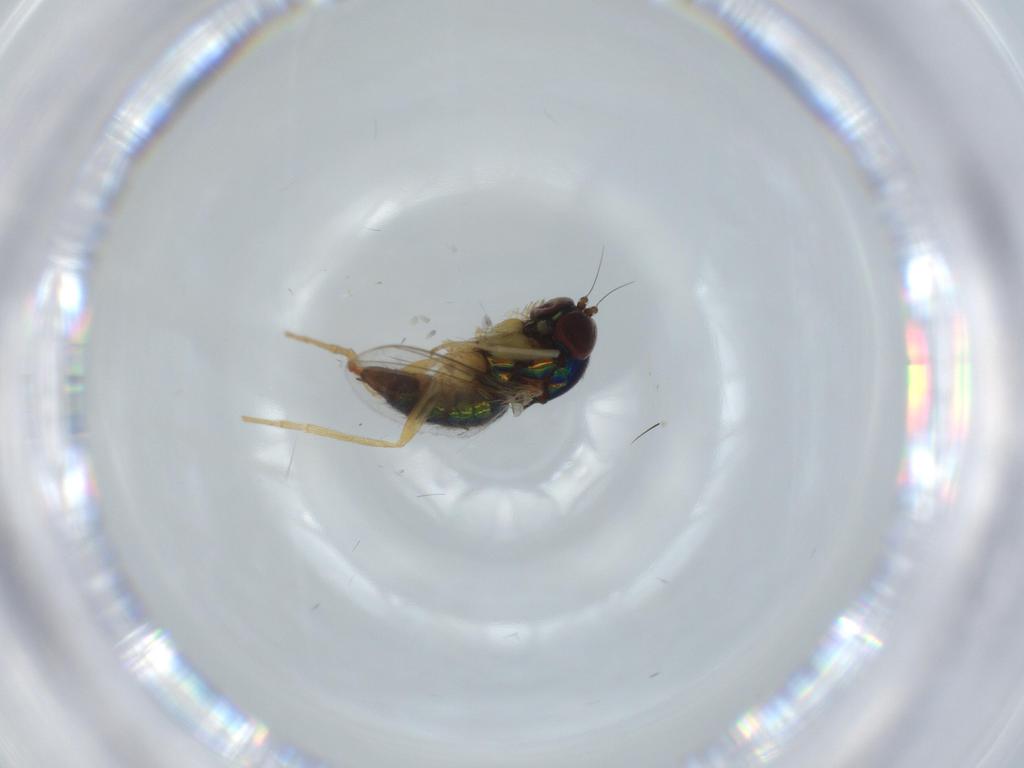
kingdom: Animalia
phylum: Arthropoda
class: Insecta
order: Diptera
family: Dolichopodidae
